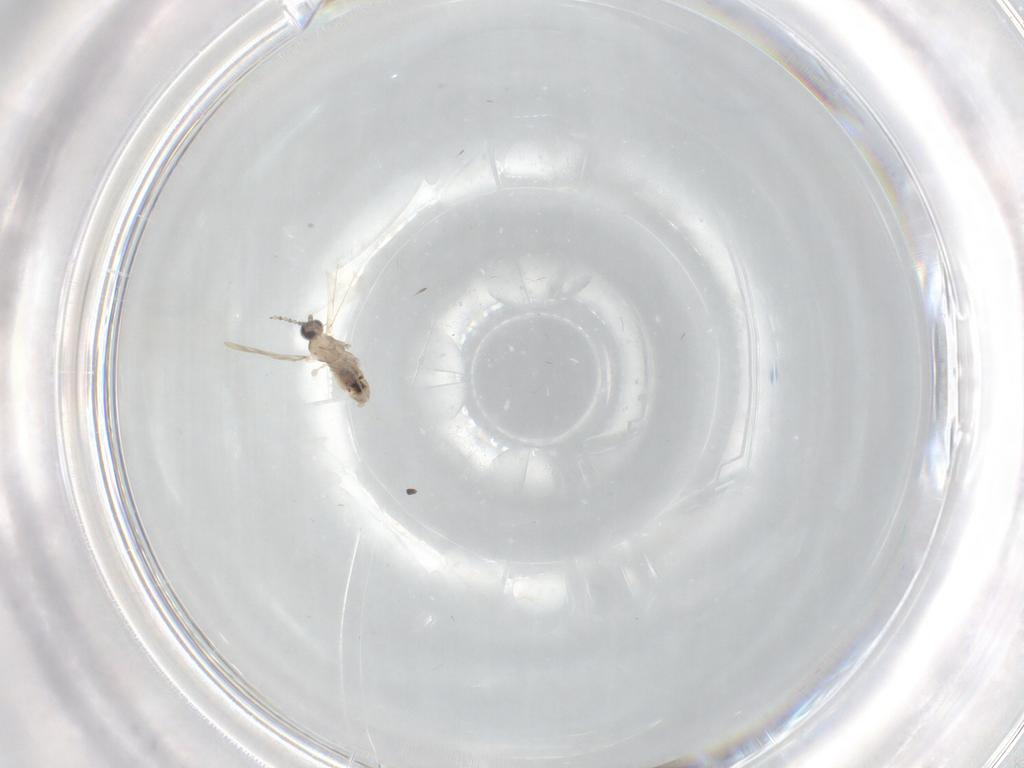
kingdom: Animalia
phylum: Arthropoda
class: Insecta
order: Diptera
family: Cecidomyiidae
